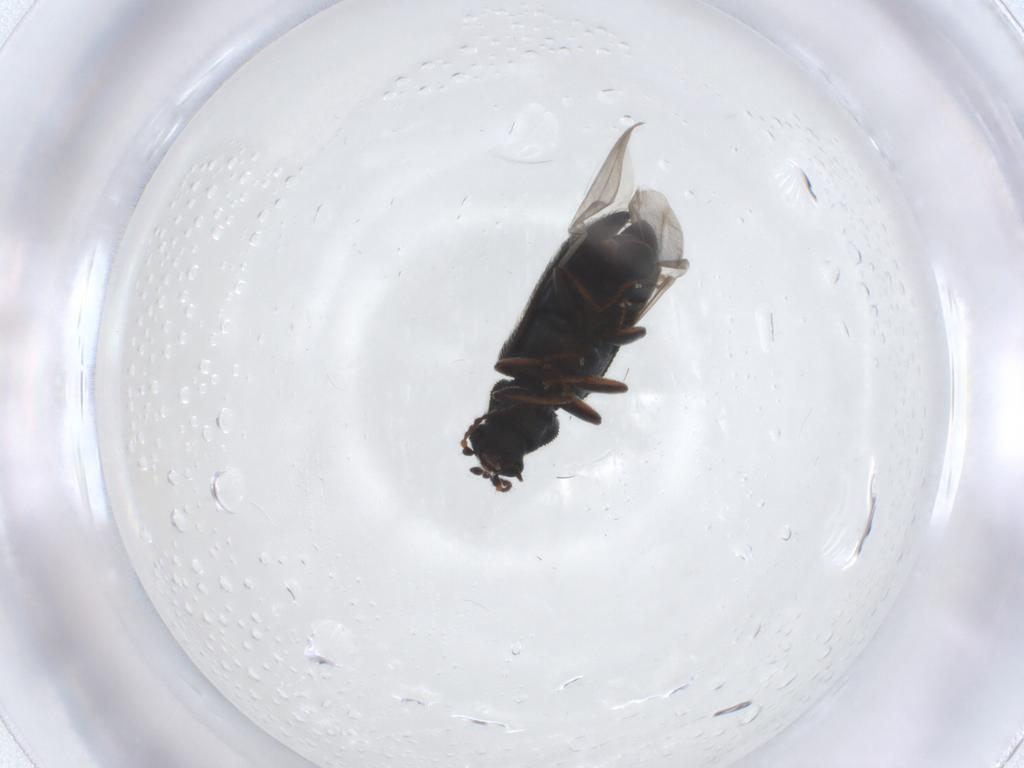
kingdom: Animalia
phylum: Arthropoda
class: Insecta
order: Coleoptera
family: Melyridae
